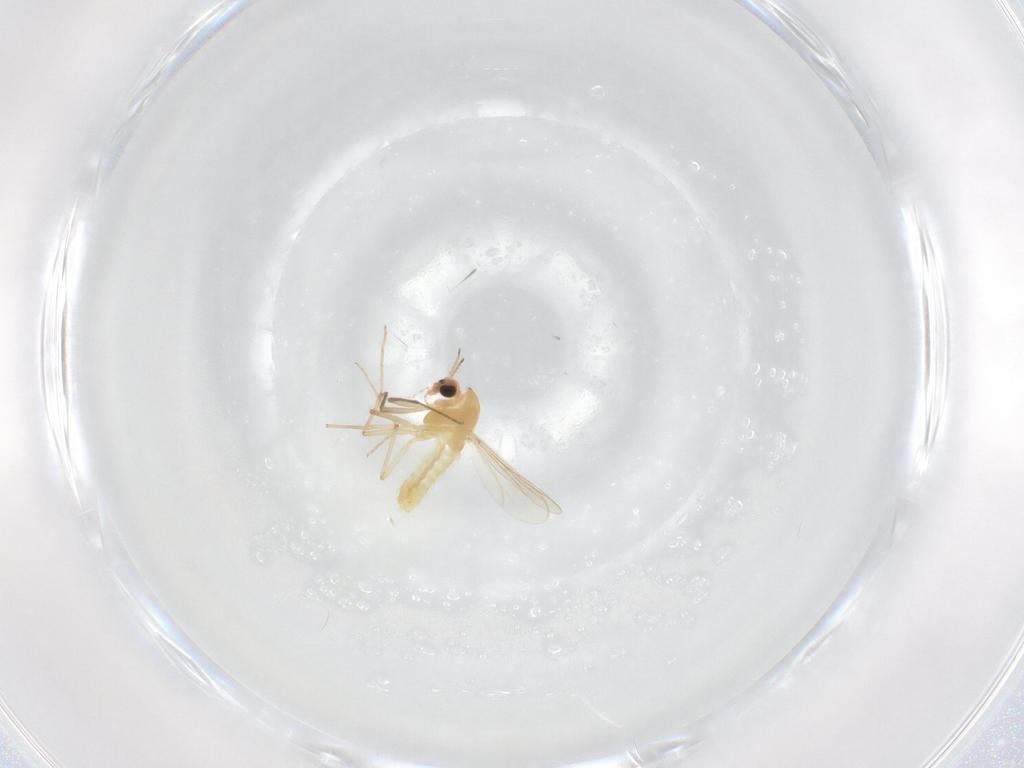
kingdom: Animalia
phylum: Arthropoda
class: Insecta
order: Diptera
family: Chironomidae
